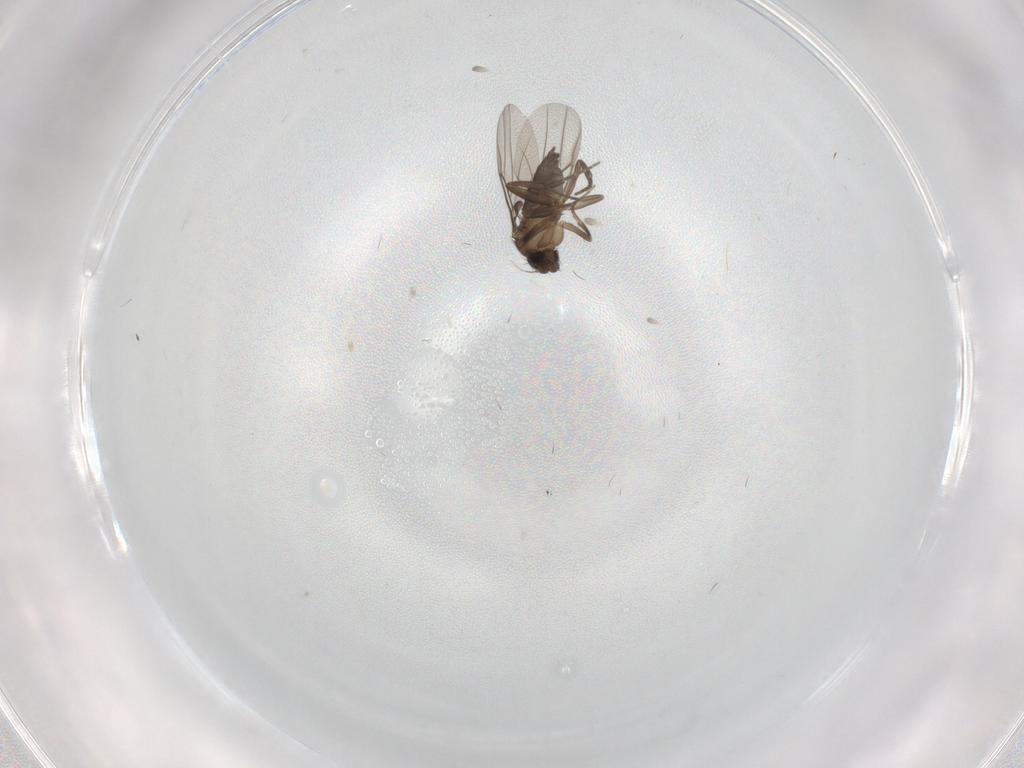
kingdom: Animalia
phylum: Arthropoda
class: Insecta
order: Diptera
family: Phoridae
